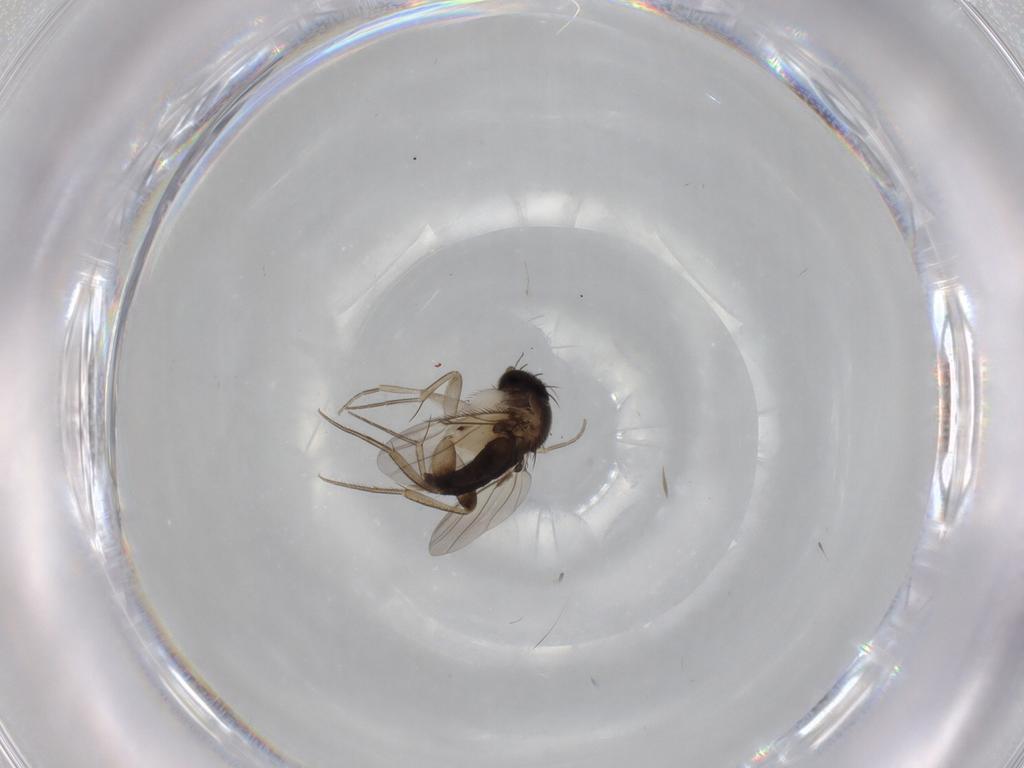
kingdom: Animalia
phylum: Arthropoda
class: Insecta
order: Diptera
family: Phoridae
